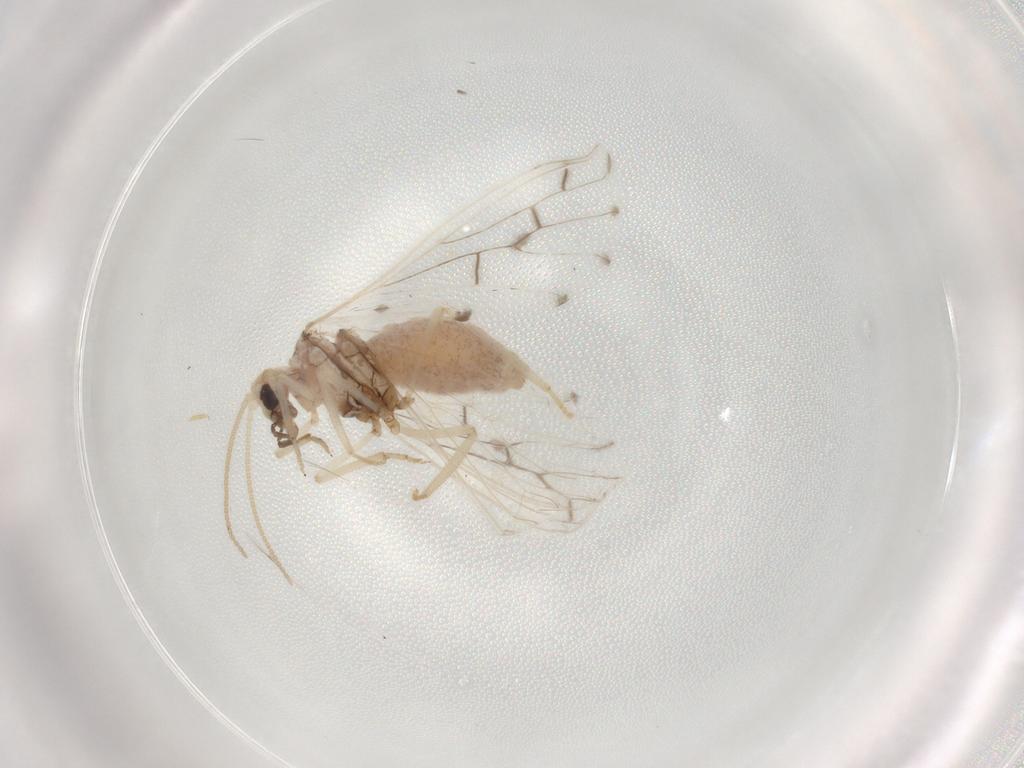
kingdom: Animalia
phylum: Arthropoda
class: Insecta
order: Neuroptera
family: Coniopterygidae
